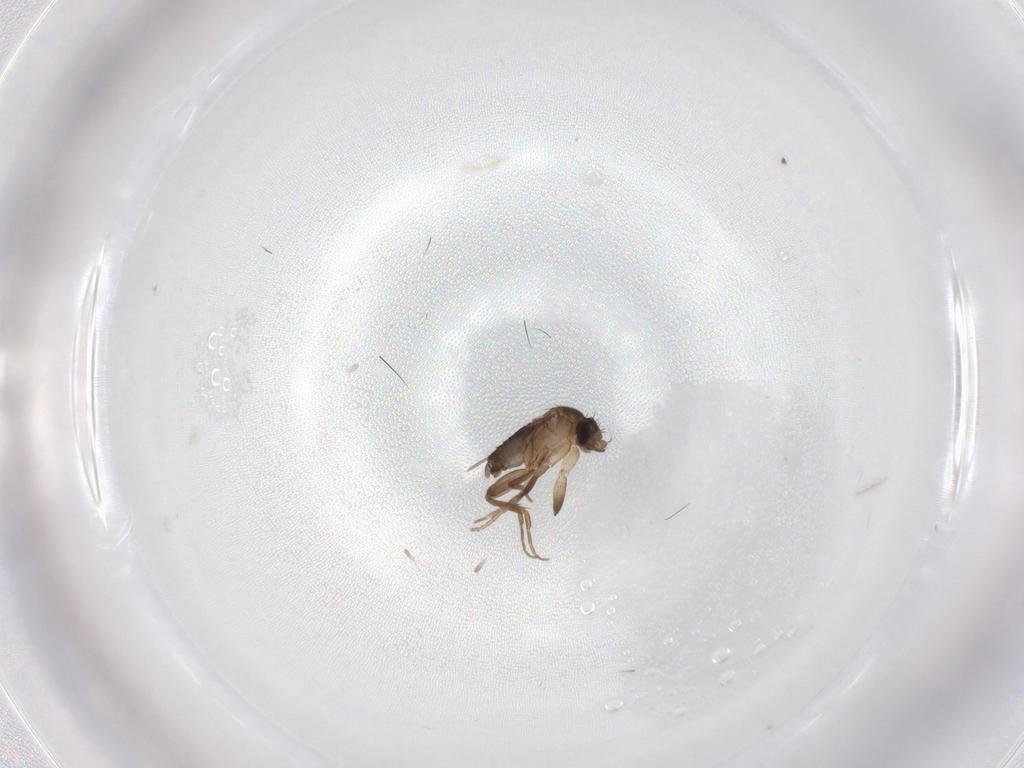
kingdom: Animalia
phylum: Arthropoda
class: Insecta
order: Diptera
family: Phoridae
